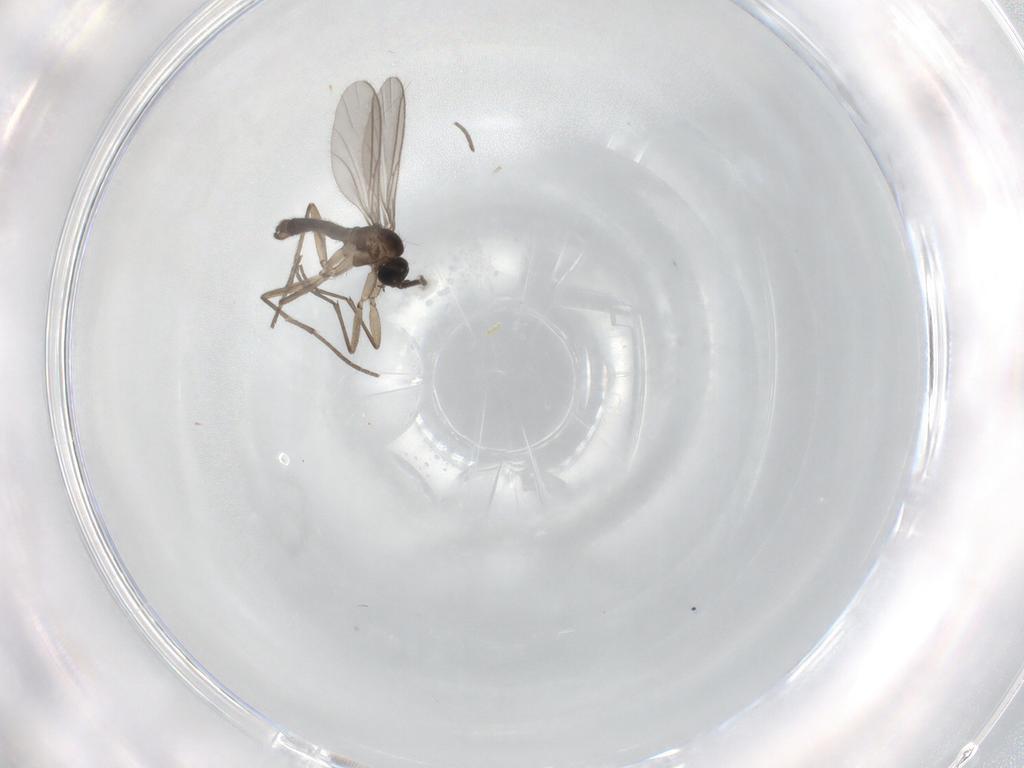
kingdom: Animalia
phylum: Arthropoda
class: Insecta
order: Diptera
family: Sciaridae
